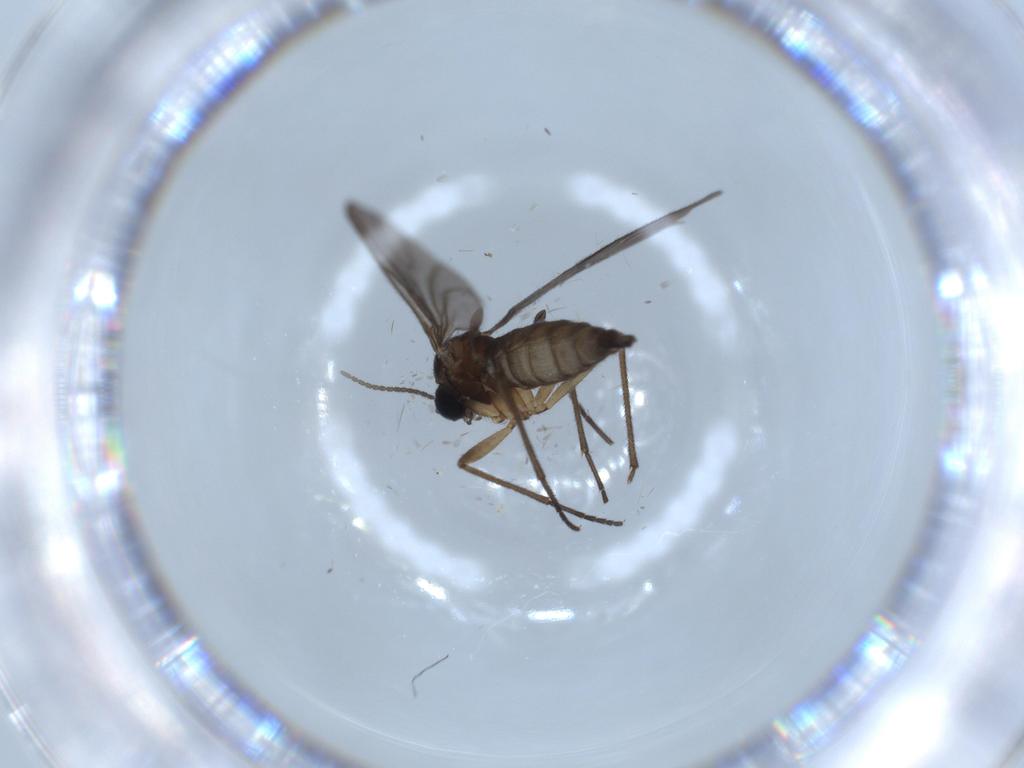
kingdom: Animalia
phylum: Arthropoda
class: Insecta
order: Diptera
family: Sciaridae
